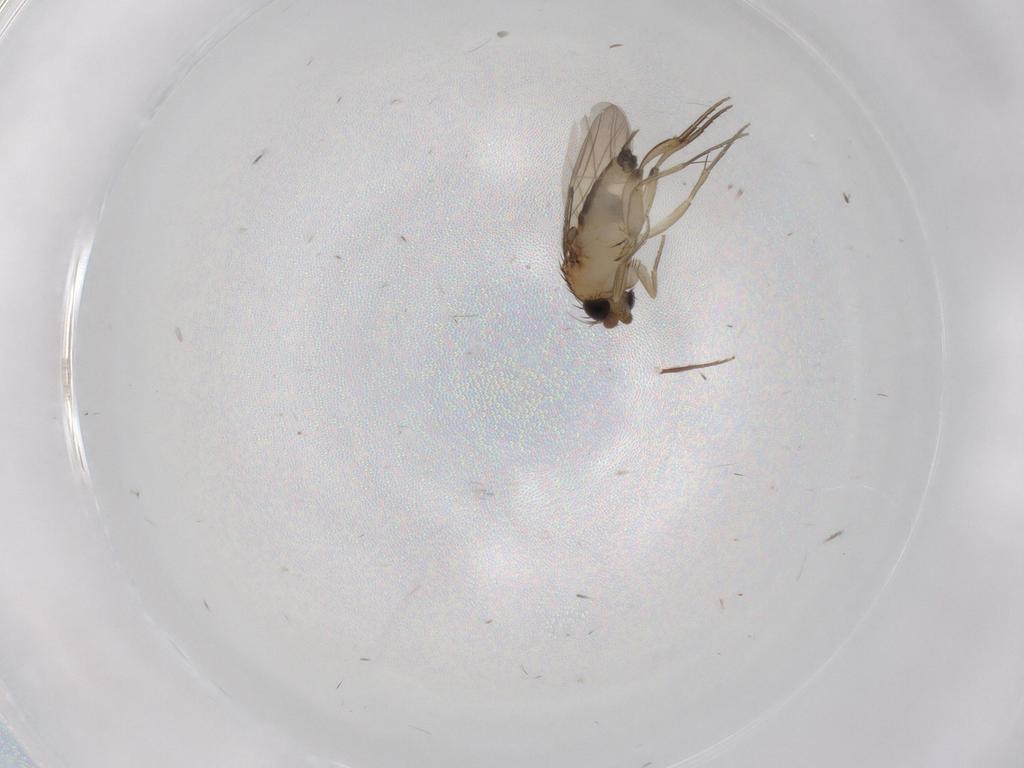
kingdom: Animalia
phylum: Arthropoda
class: Insecta
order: Diptera
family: Phoridae
